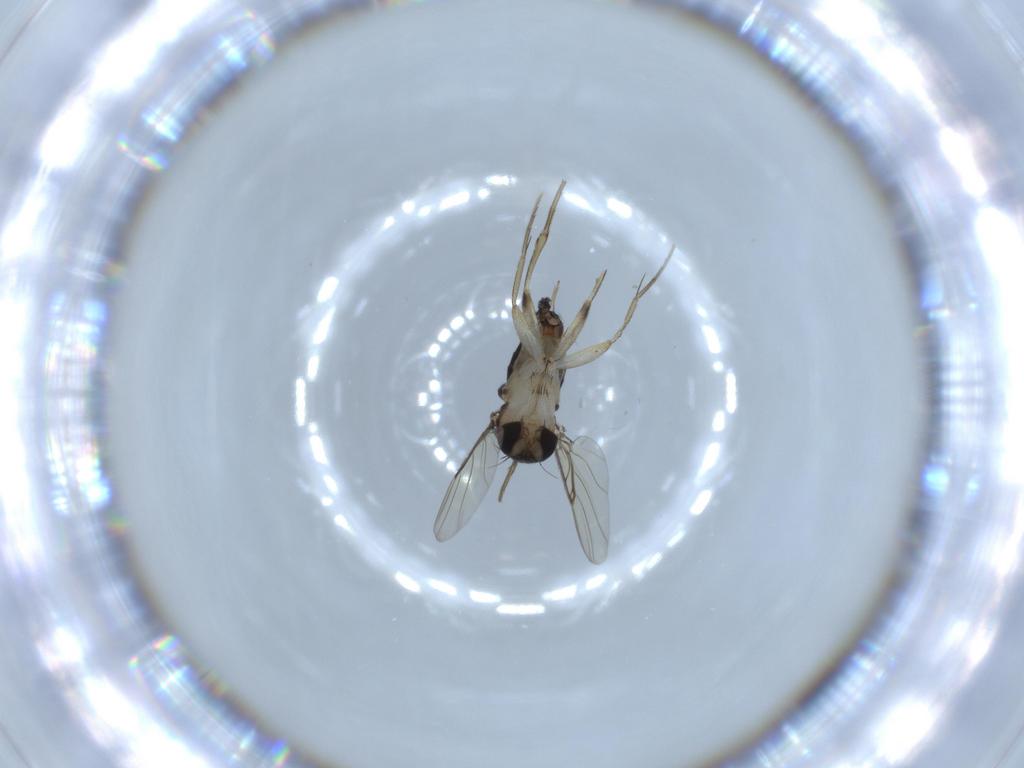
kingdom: Animalia
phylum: Arthropoda
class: Insecta
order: Diptera
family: Phoridae
